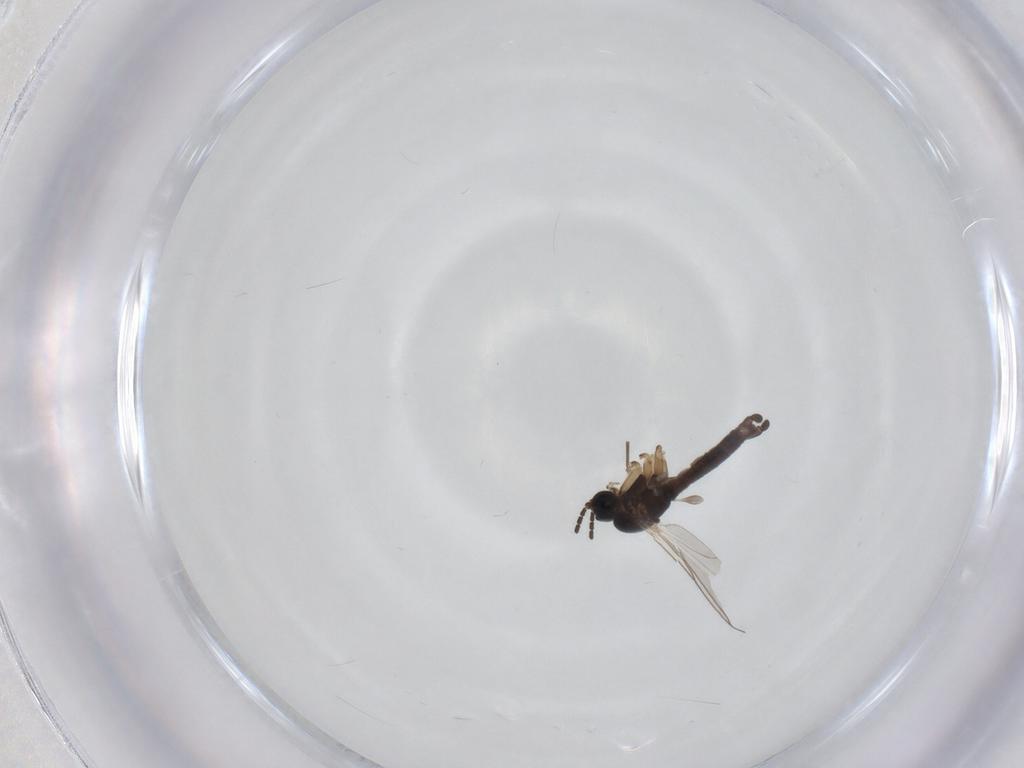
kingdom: Animalia
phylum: Arthropoda
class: Insecta
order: Diptera
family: Sciaridae
